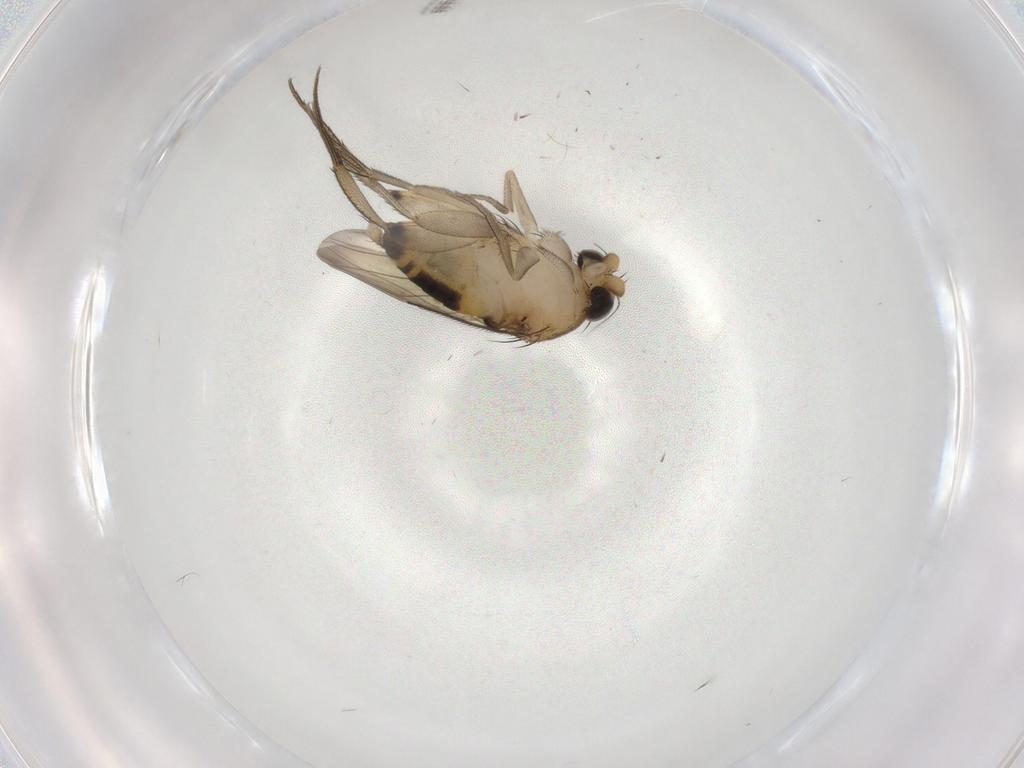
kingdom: Animalia
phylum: Arthropoda
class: Insecta
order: Diptera
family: Phoridae
